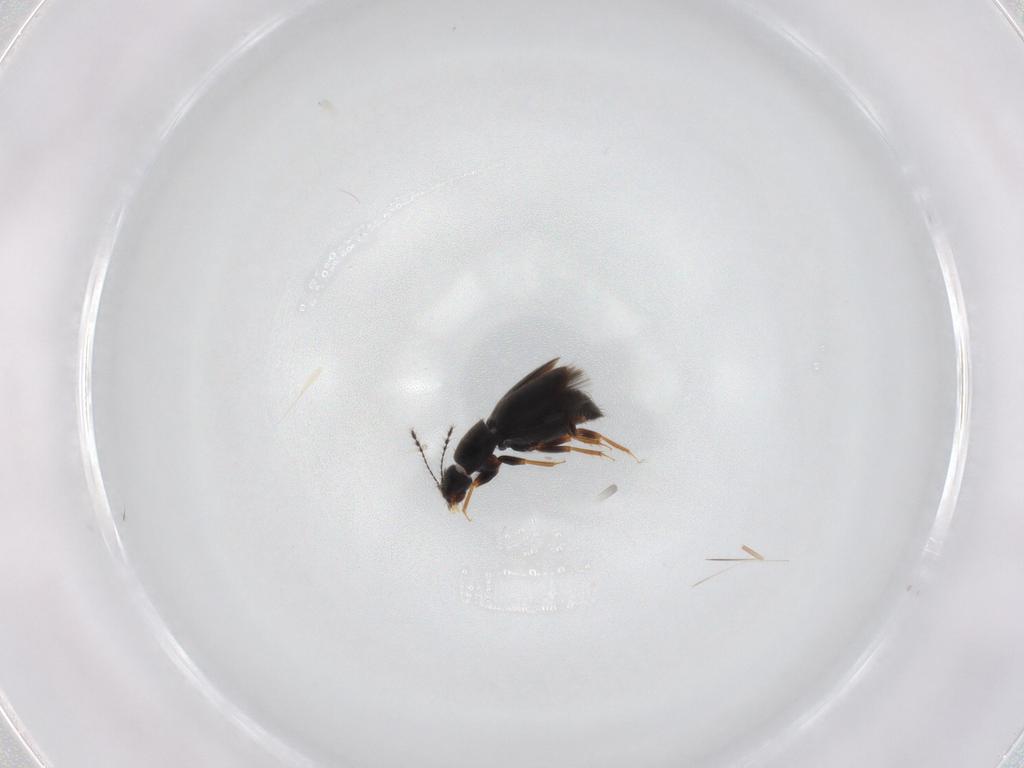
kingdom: Animalia
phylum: Arthropoda
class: Insecta
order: Coleoptera
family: Ptiliidae
